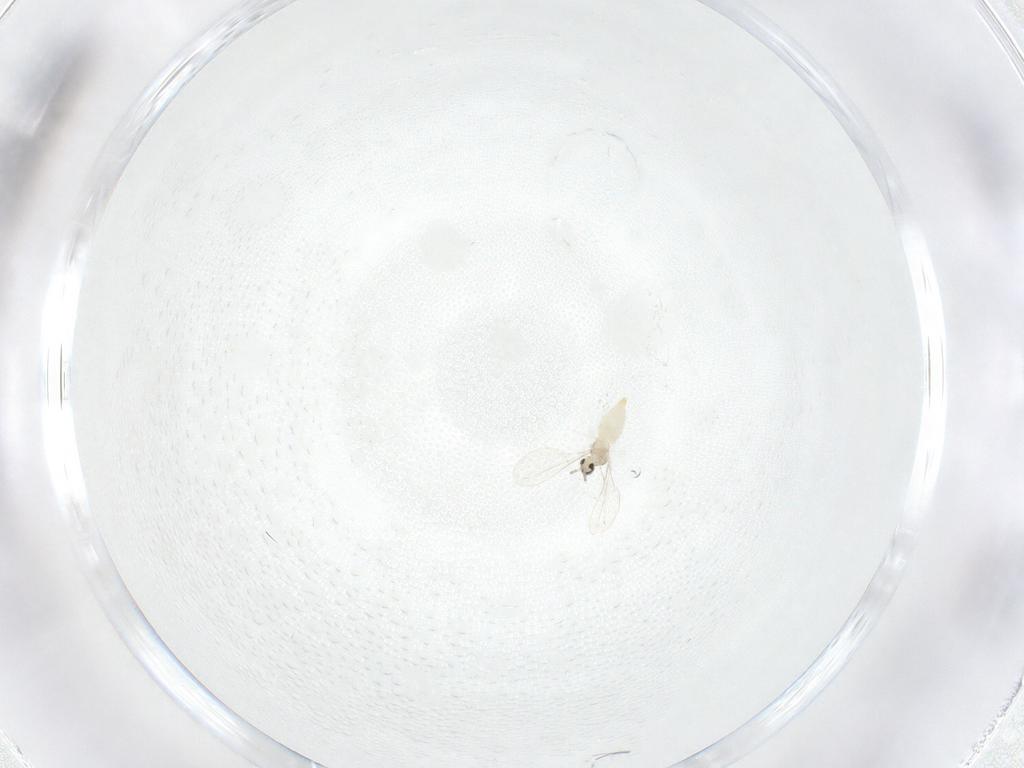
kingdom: Animalia
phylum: Arthropoda
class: Insecta
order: Diptera
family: Cecidomyiidae
